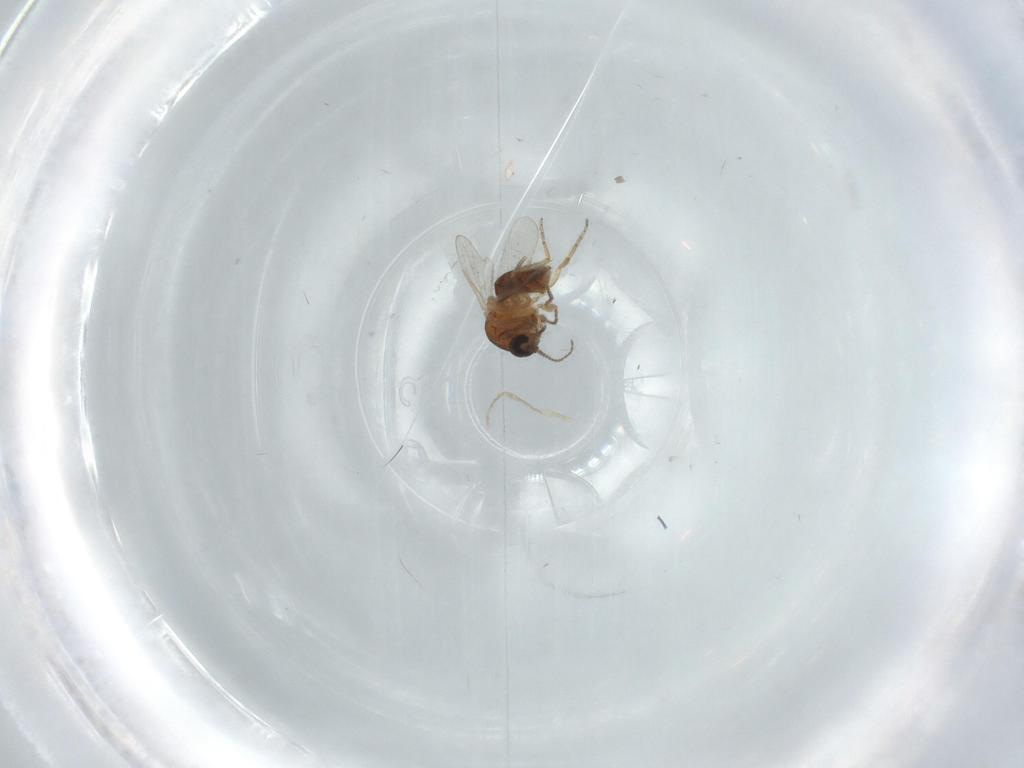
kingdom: Animalia
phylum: Arthropoda
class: Insecta
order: Diptera
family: Ceratopogonidae
